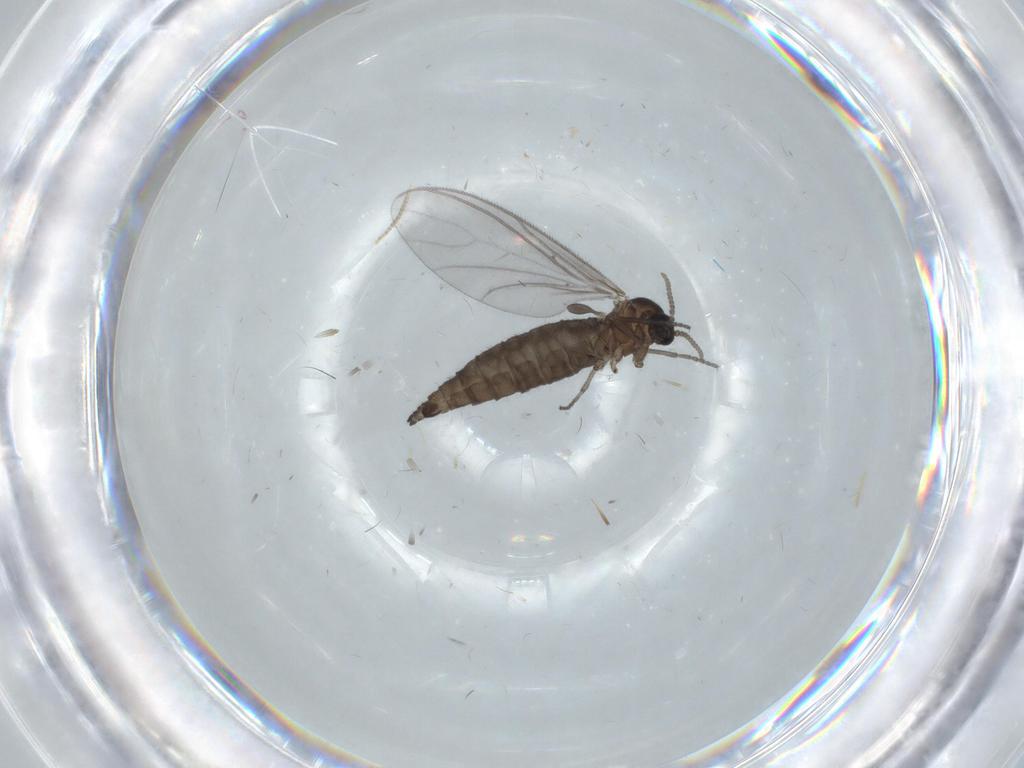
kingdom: Animalia
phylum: Arthropoda
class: Insecta
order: Diptera
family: Sciaridae
